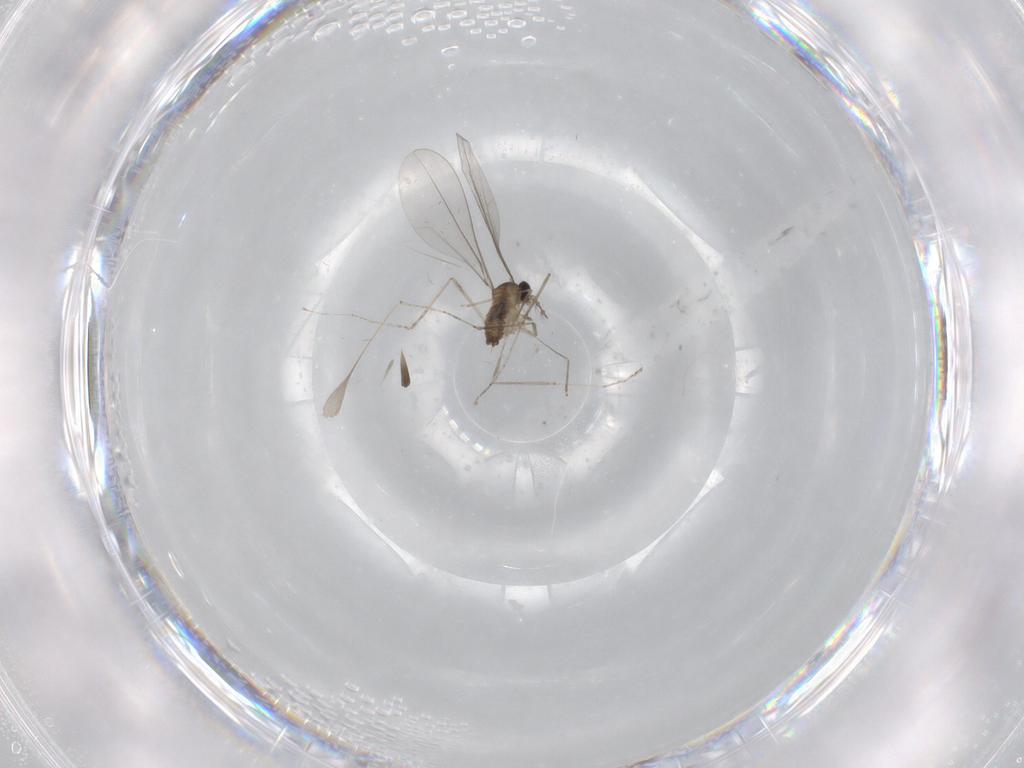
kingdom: Animalia
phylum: Arthropoda
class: Insecta
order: Diptera
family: Cecidomyiidae
